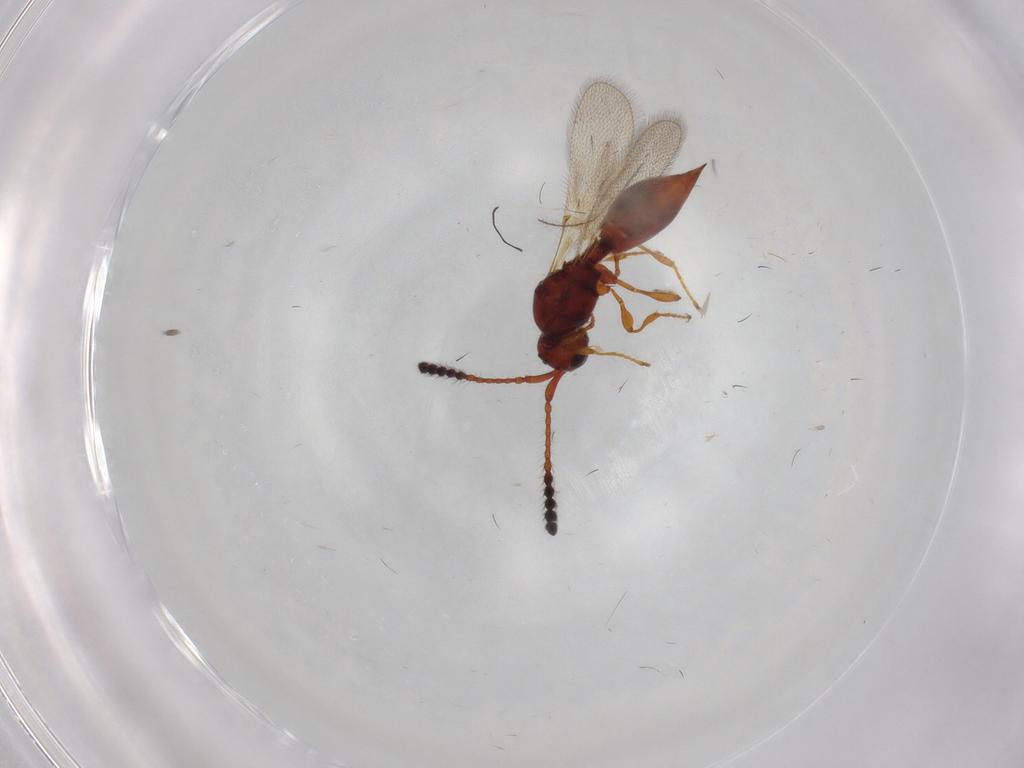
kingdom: Animalia
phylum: Arthropoda
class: Insecta
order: Hymenoptera
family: Diapriidae
